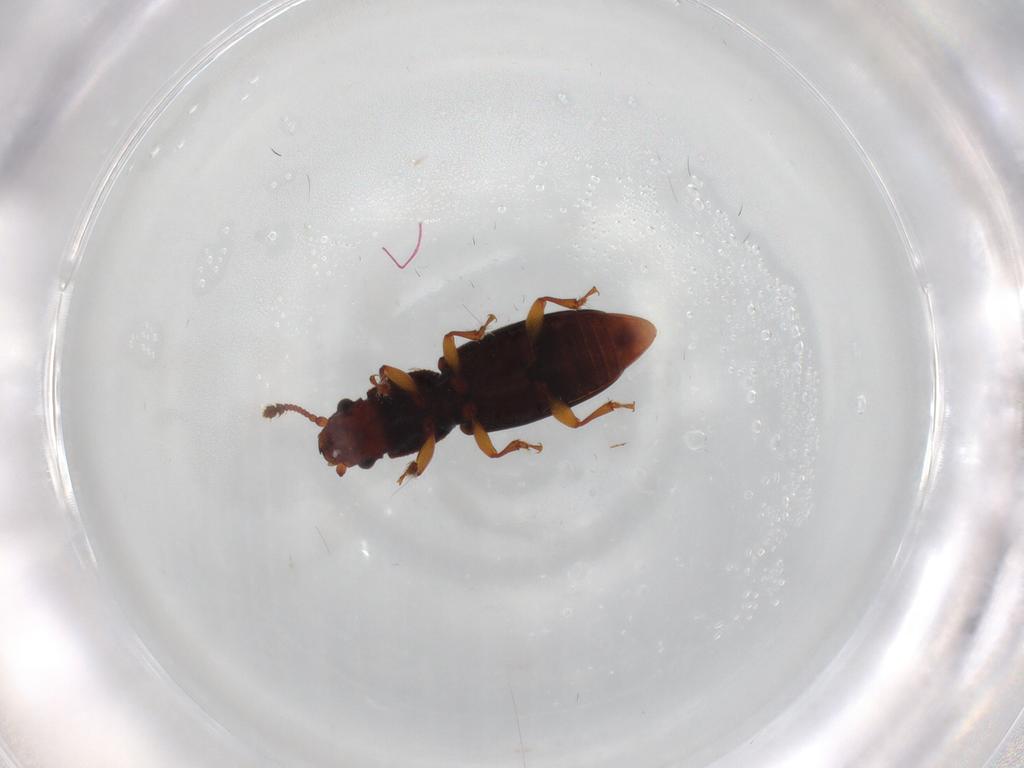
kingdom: Animalia
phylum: Arthropoda
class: Insecta
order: Coleoptera
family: Monotomidae
